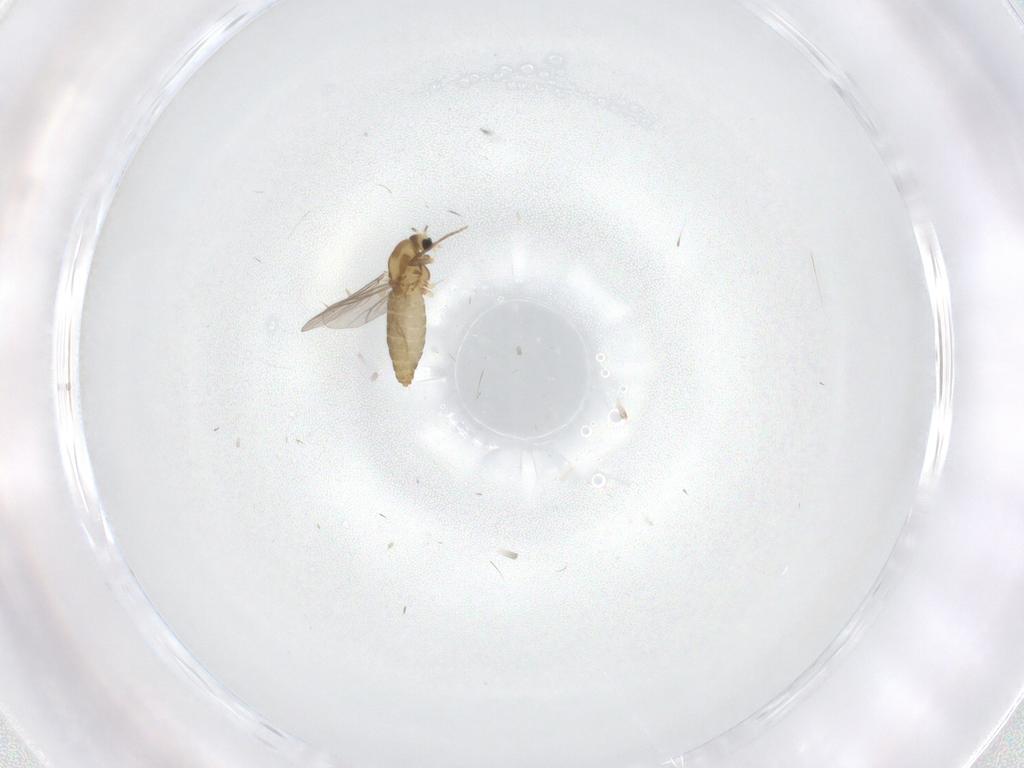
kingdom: Animalia
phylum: Arthropoda
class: Insecta
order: Diptera
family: Chironomidae
